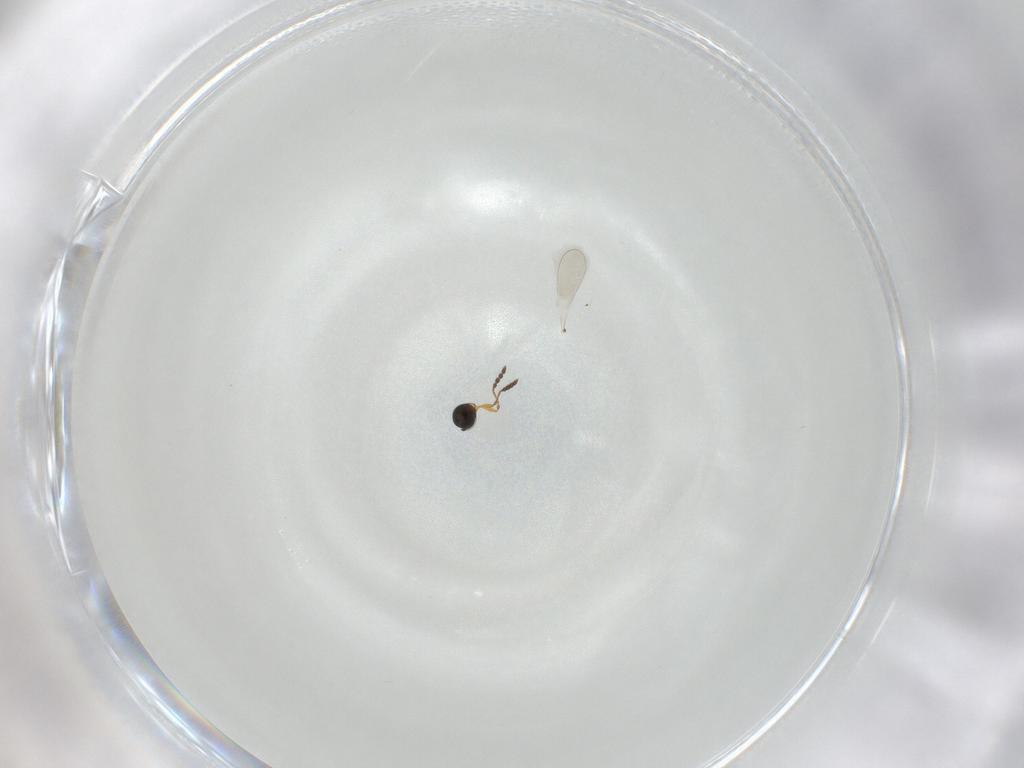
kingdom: Animalia
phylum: Arthropoda
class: Insecta
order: Hymenoptera
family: Platygastridae
